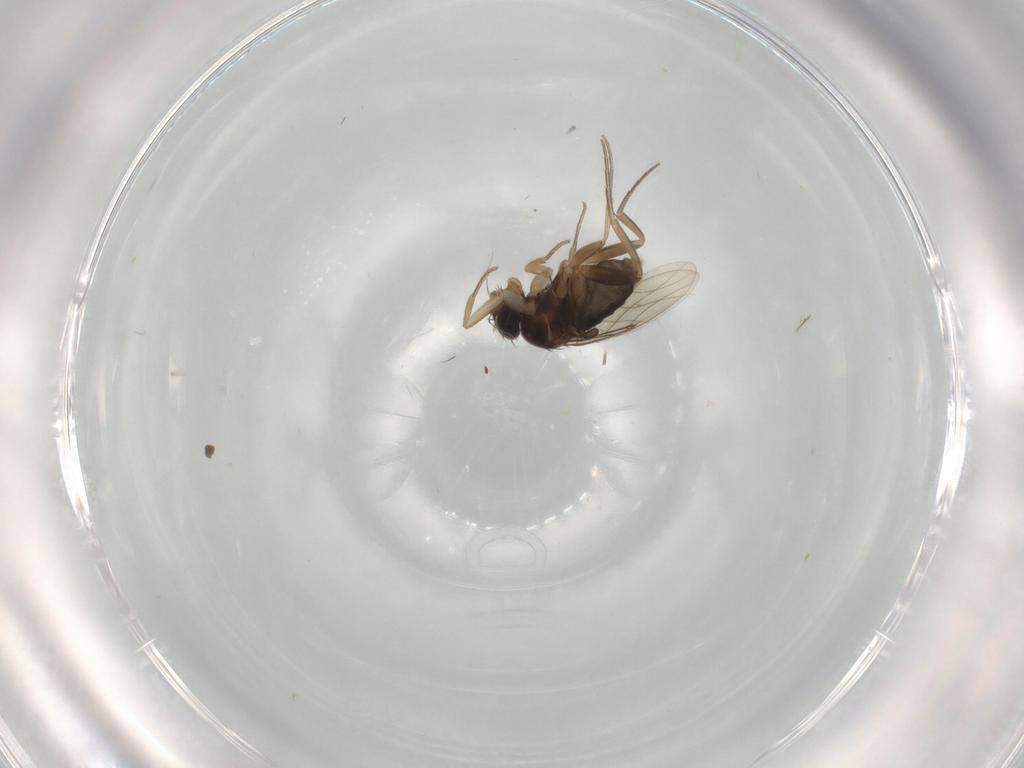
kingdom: Animalia
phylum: Arthropoda
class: Insecta
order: Diptera
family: Phoridae
